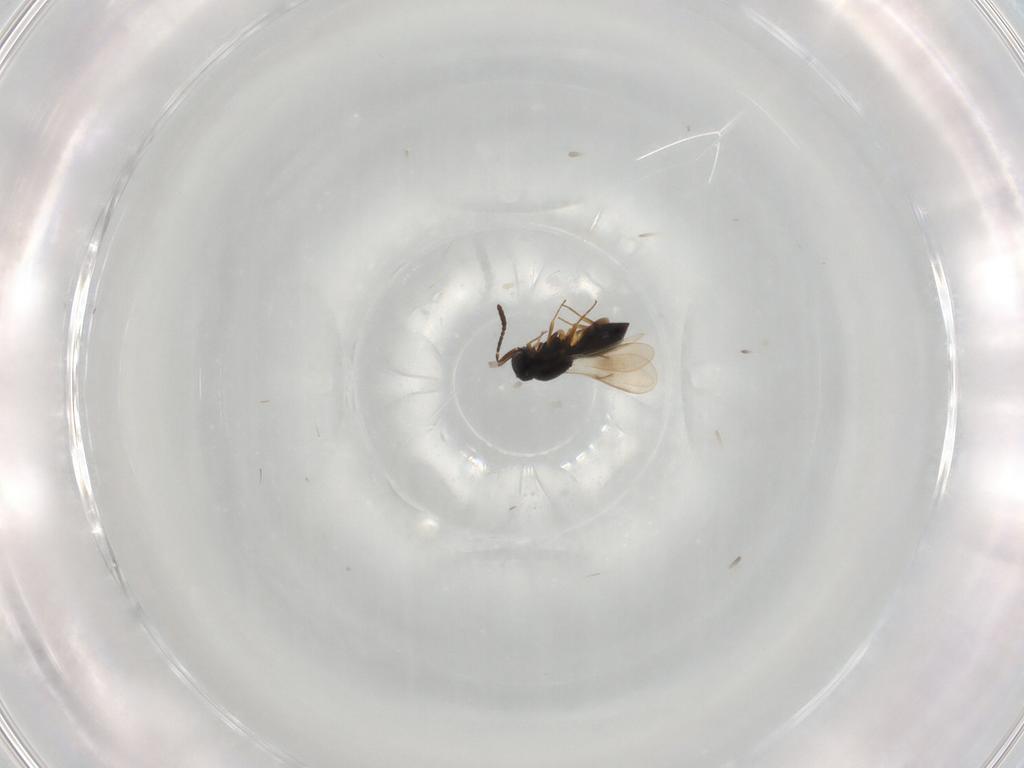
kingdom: Animalia
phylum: Arthropoda
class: Insecta
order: Hymenoptera
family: Scelionidae
